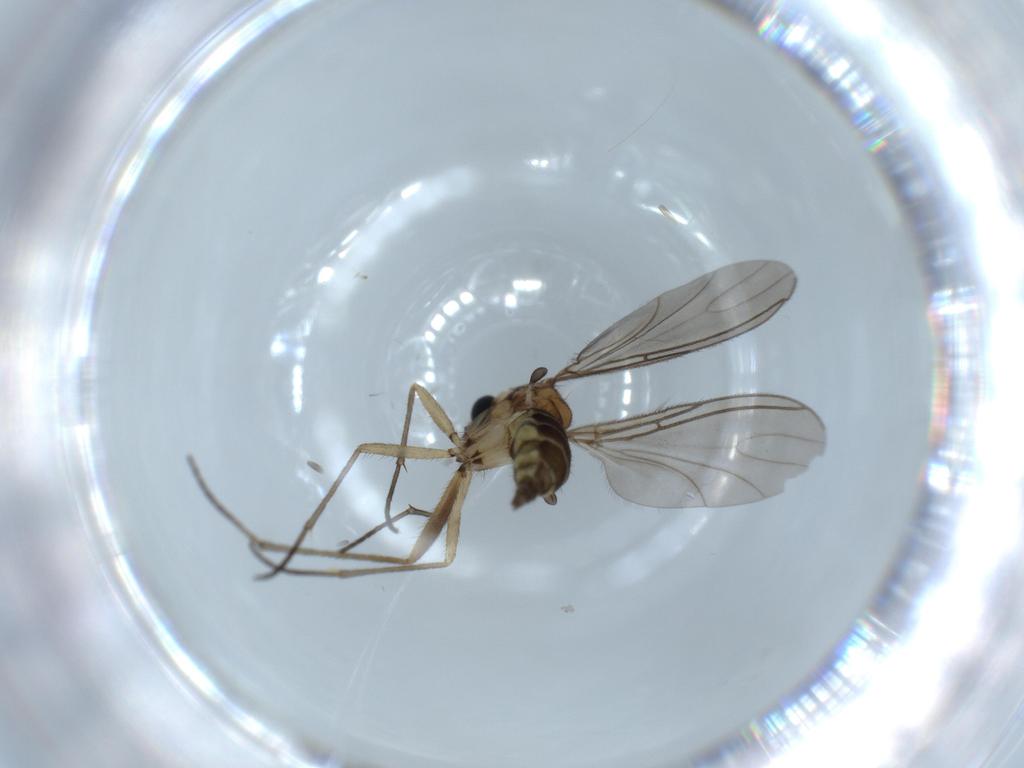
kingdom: Animalia
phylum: Arthropoda
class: Insecta
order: Diptera
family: Sciaridae
